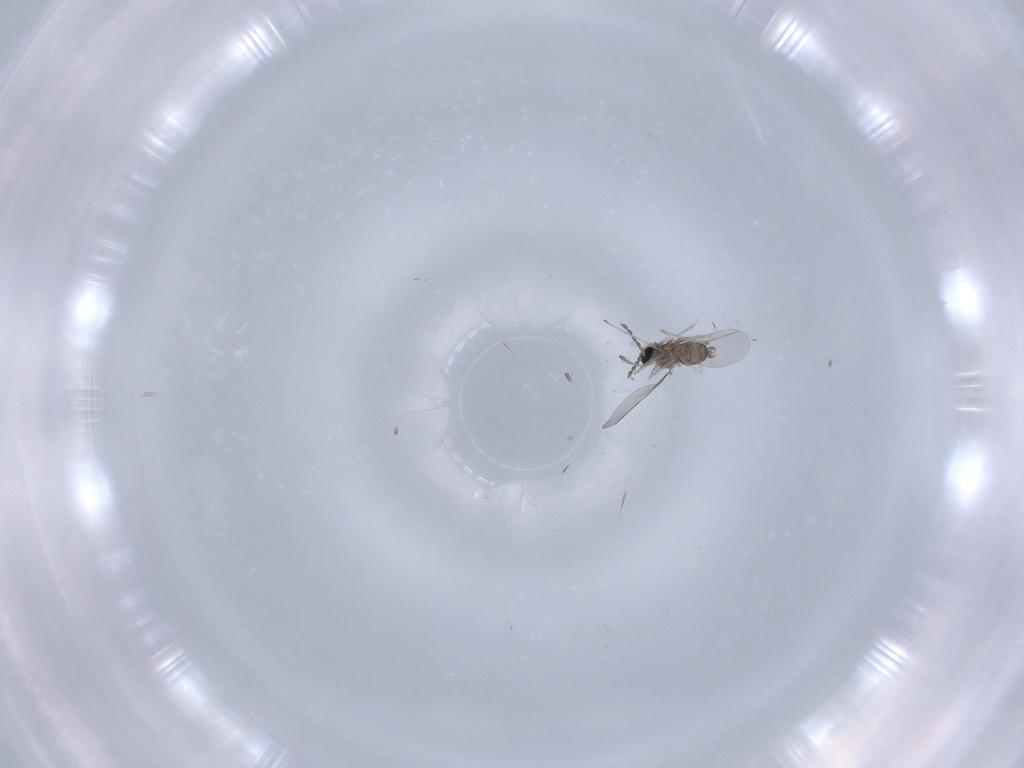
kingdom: Animalia
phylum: Arthropoda
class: Insecta
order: Diptera
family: Cecidomyiidae
